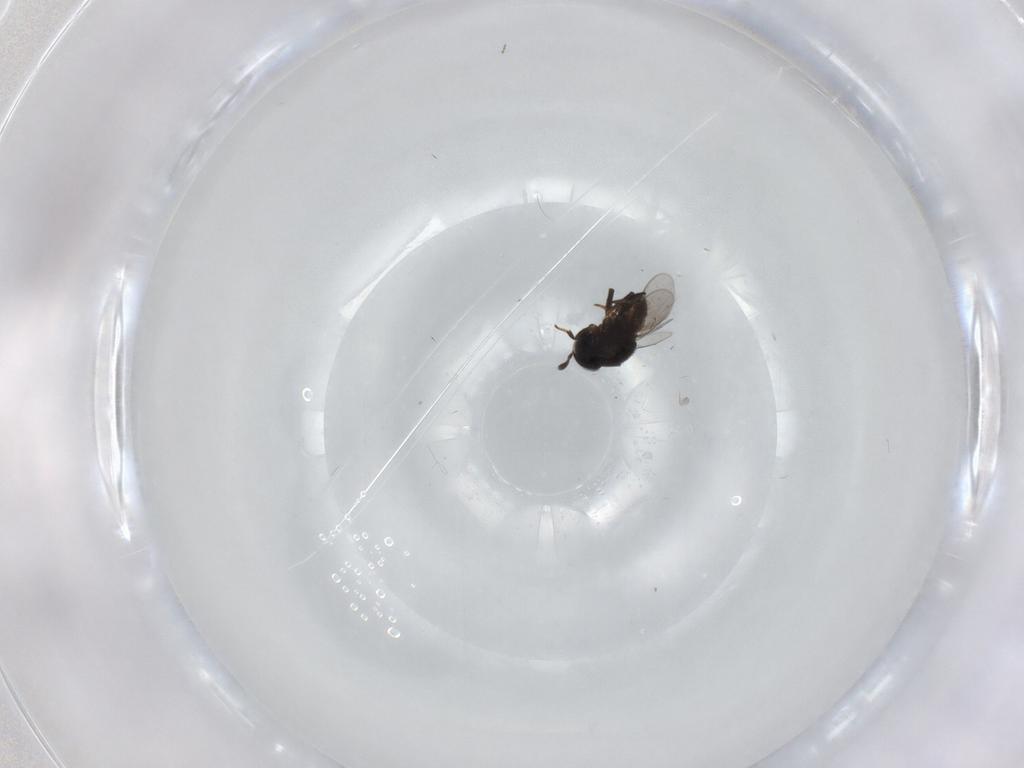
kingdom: Animalia
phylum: Arthropoda
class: Insecta
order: Hymenoptera
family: Encyrtidae
